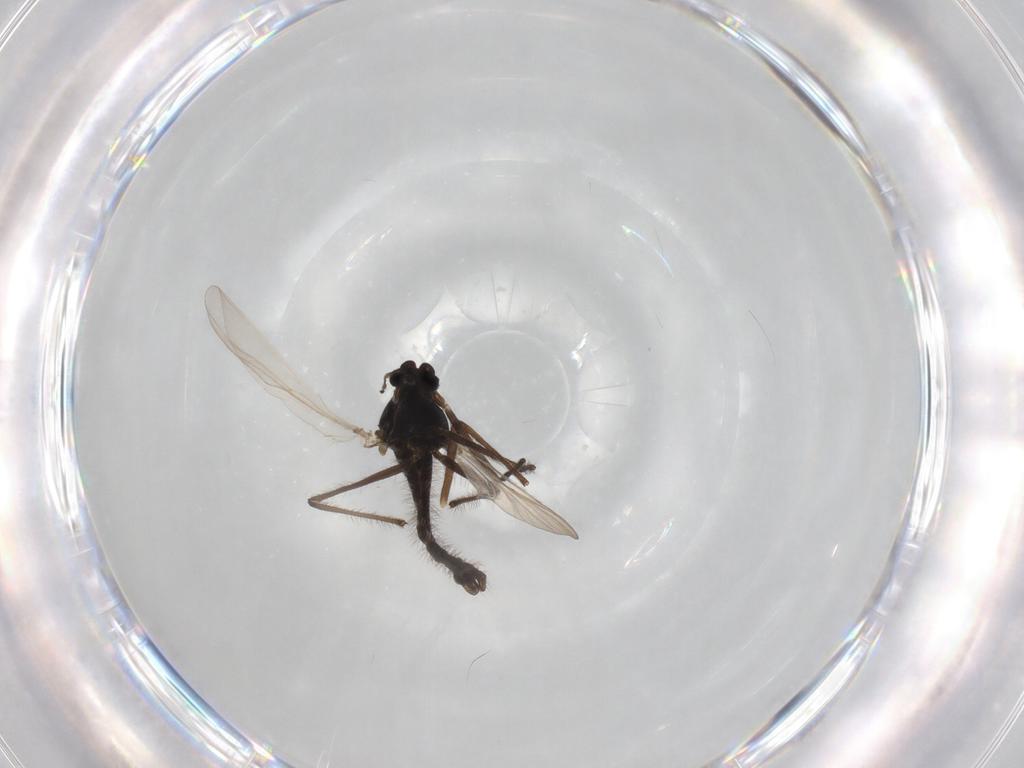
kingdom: Animalia
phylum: Arthropoda
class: Insecta
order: Diptera
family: Chironomidae
